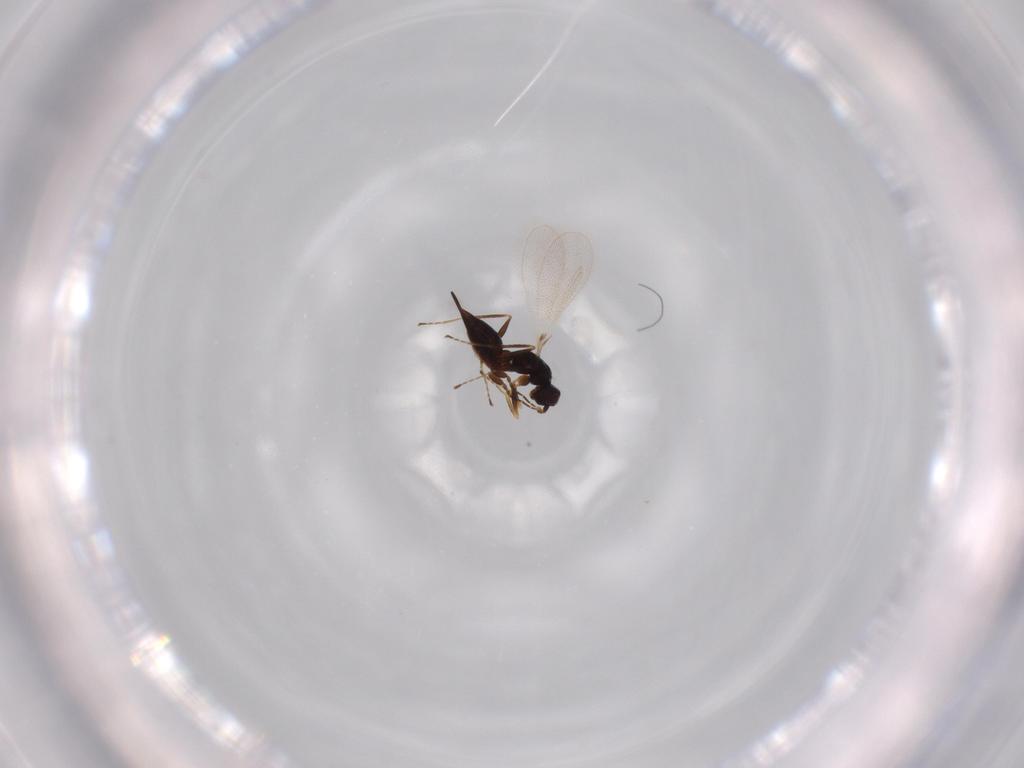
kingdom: Animalia
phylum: Arthropoda
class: Insecta
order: Hymenoptera
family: Mymaridae
